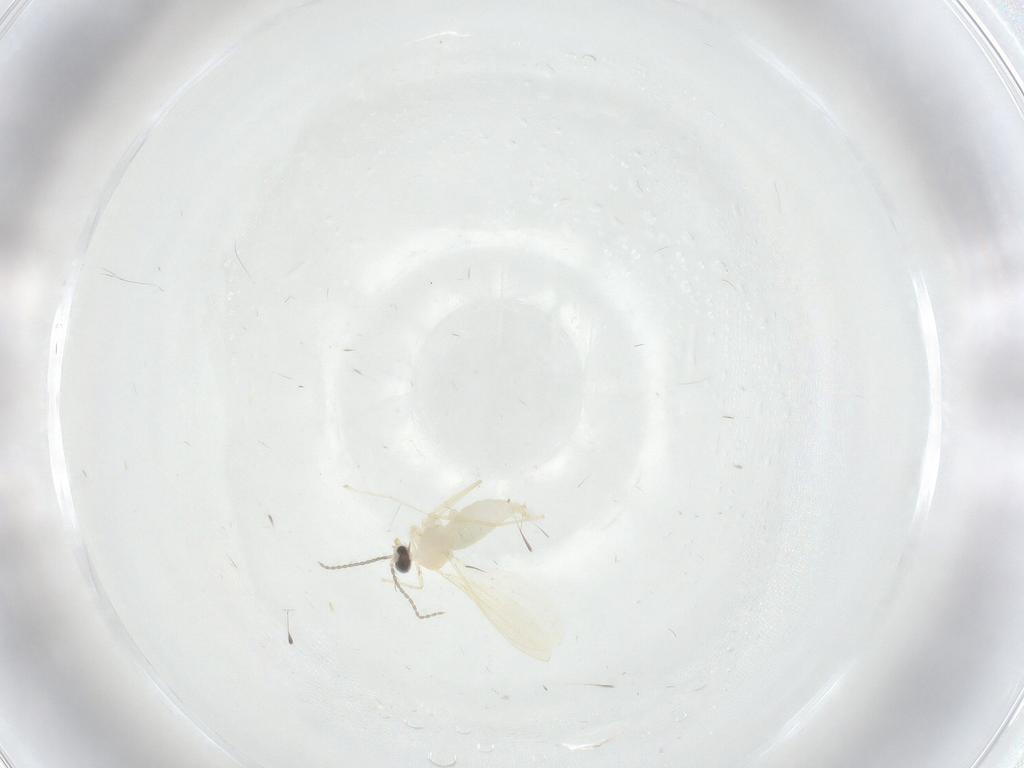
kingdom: Animalia
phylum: Arthropoda
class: Insecta
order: Diptera
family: Cecidomyiidae
